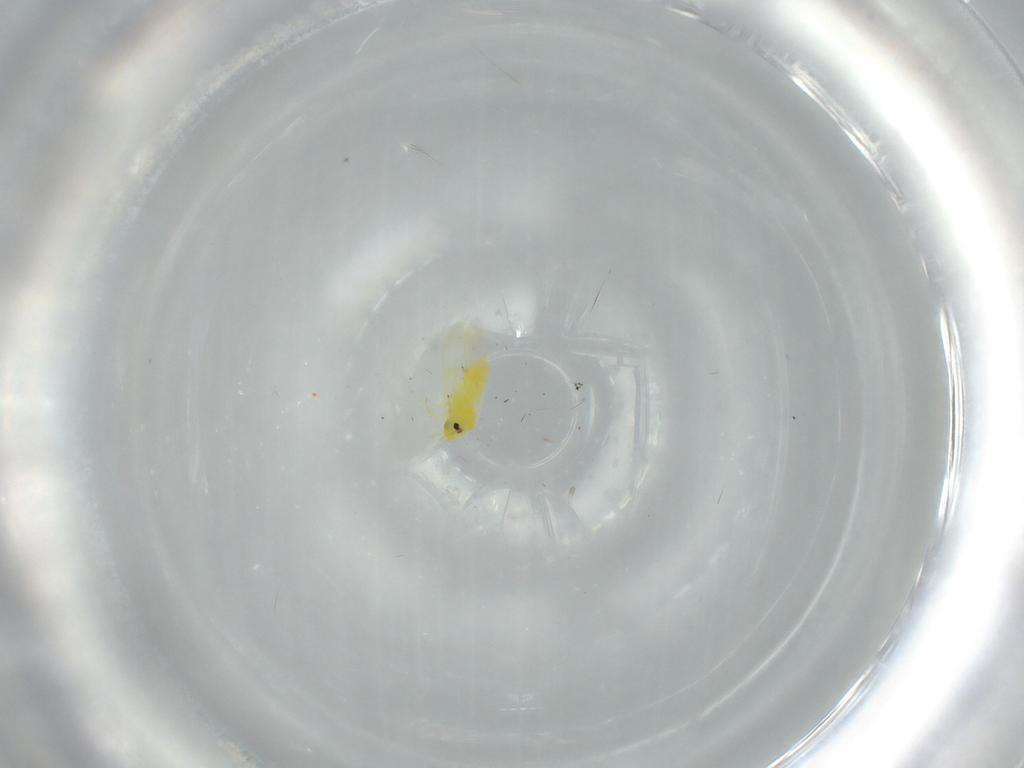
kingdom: Animalia
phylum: Arthropoda
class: Insecta
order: Hemiptera
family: Aleyrodidae
